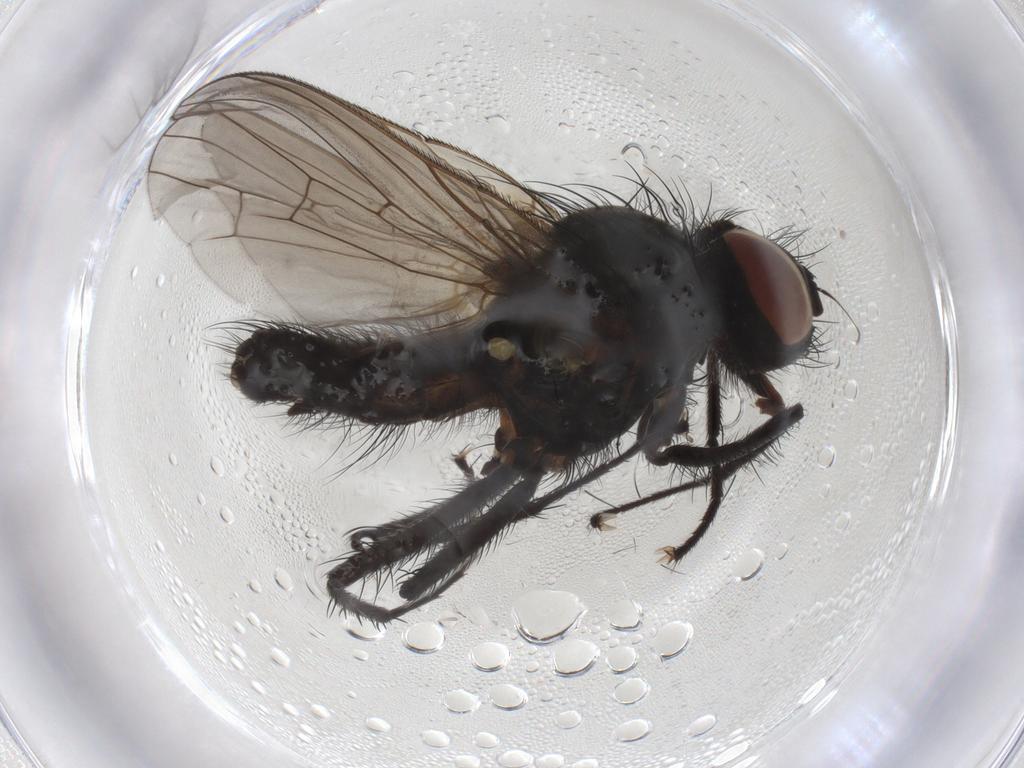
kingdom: Animalia
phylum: Arthropoda
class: Insecta
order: Diptera
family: Anthomyiidae
